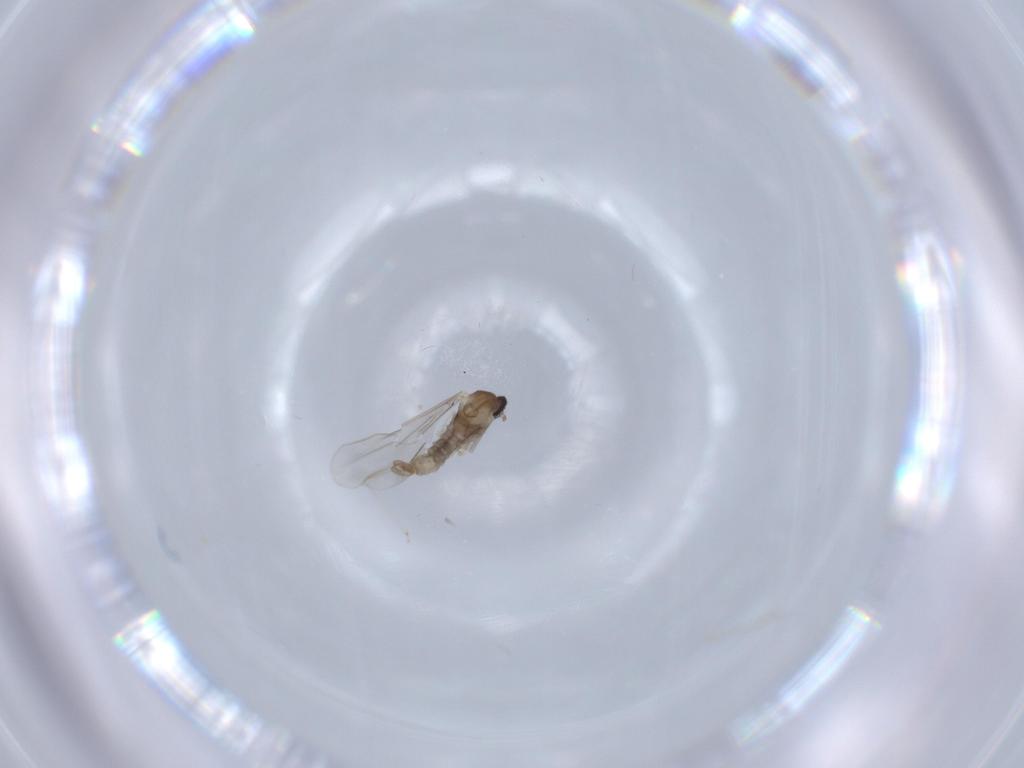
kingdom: Animalia
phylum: Arthropoda
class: Insecta
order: Diptera
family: Cecidomyiidae
